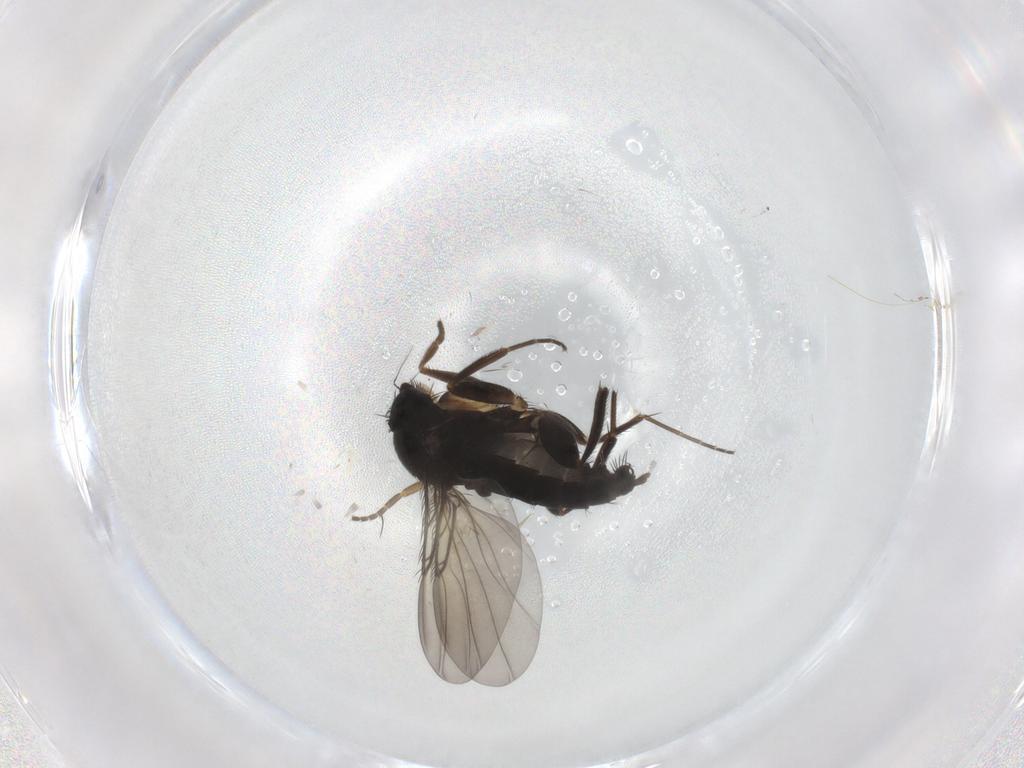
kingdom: Animalia
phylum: Arthropoda
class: Insecta
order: Diptera
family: Phoridae
